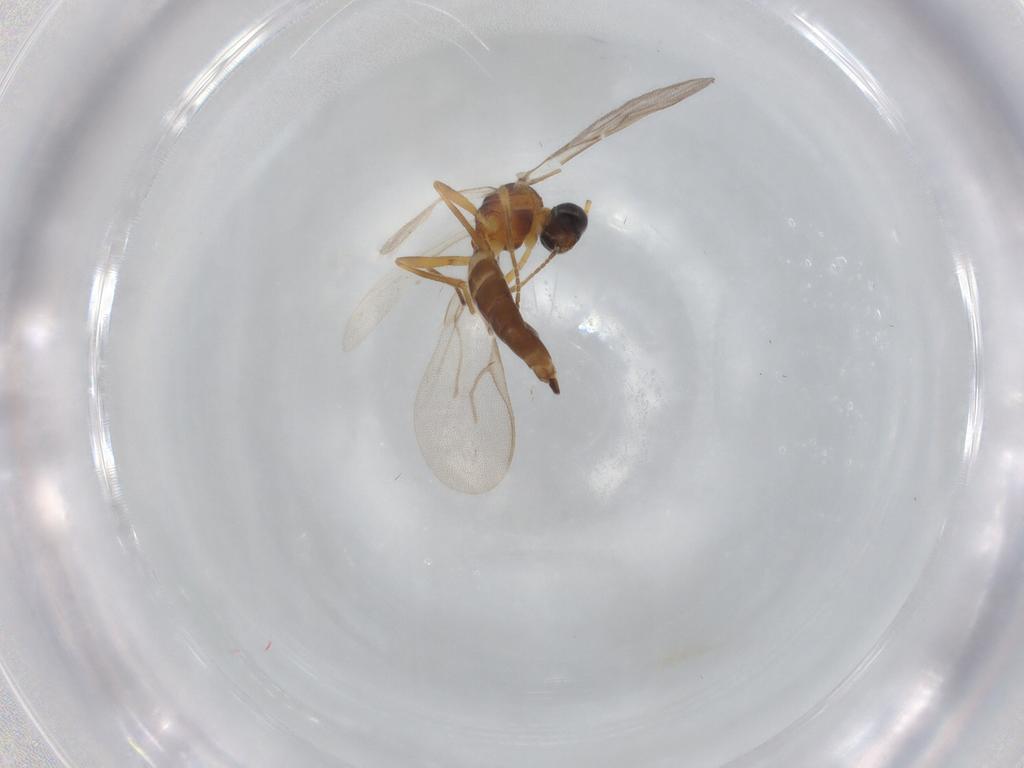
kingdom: Animalia
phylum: Arthropoda
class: Insecta
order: Hymenoptera
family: Braconidae
